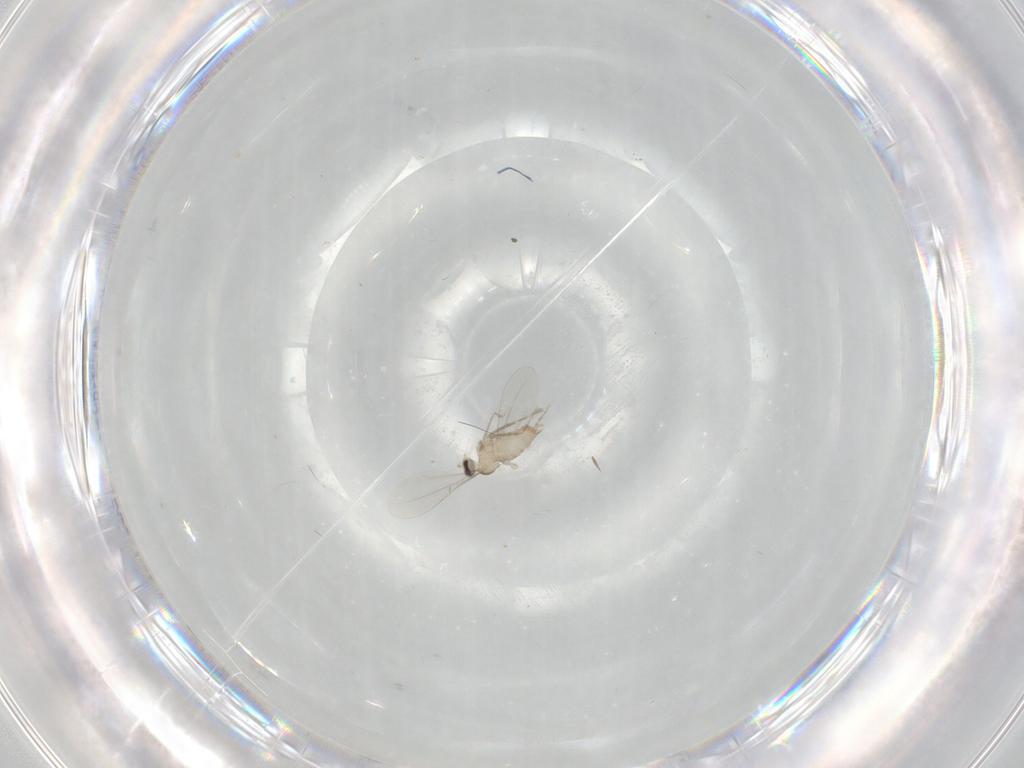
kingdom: Animalia
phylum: Arthropoda
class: Insecta
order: Diptera
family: Cecidomyiidae
